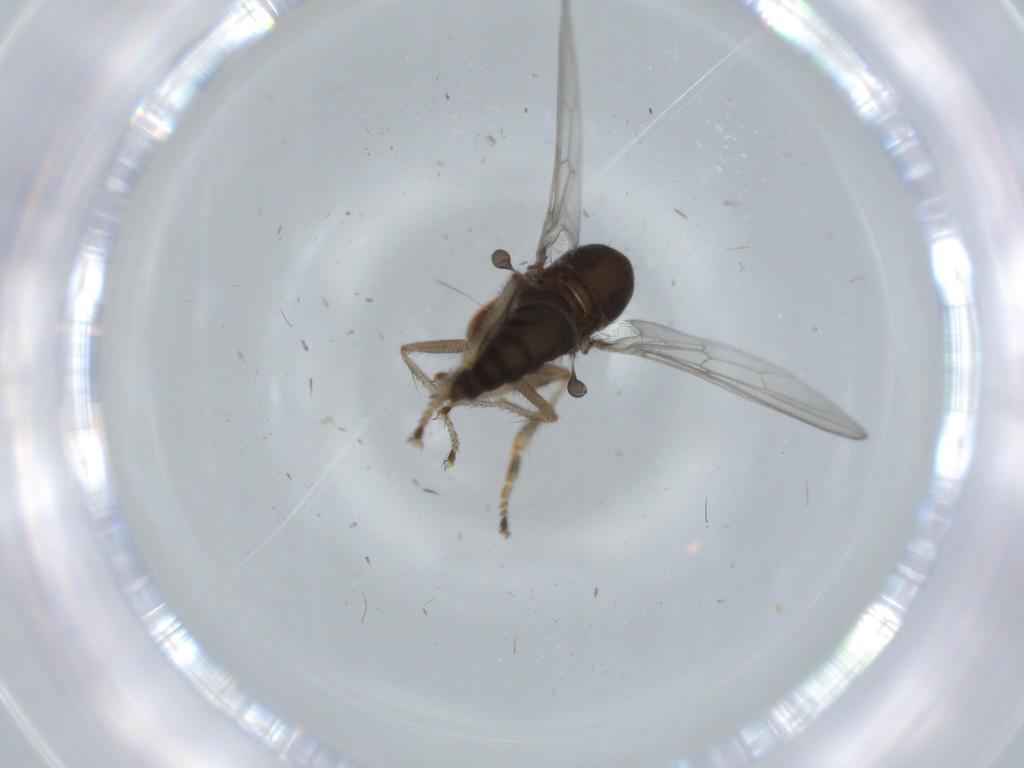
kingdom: Animalia
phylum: Arthropoda
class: Insecta
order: Diptera
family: Hybotidae
